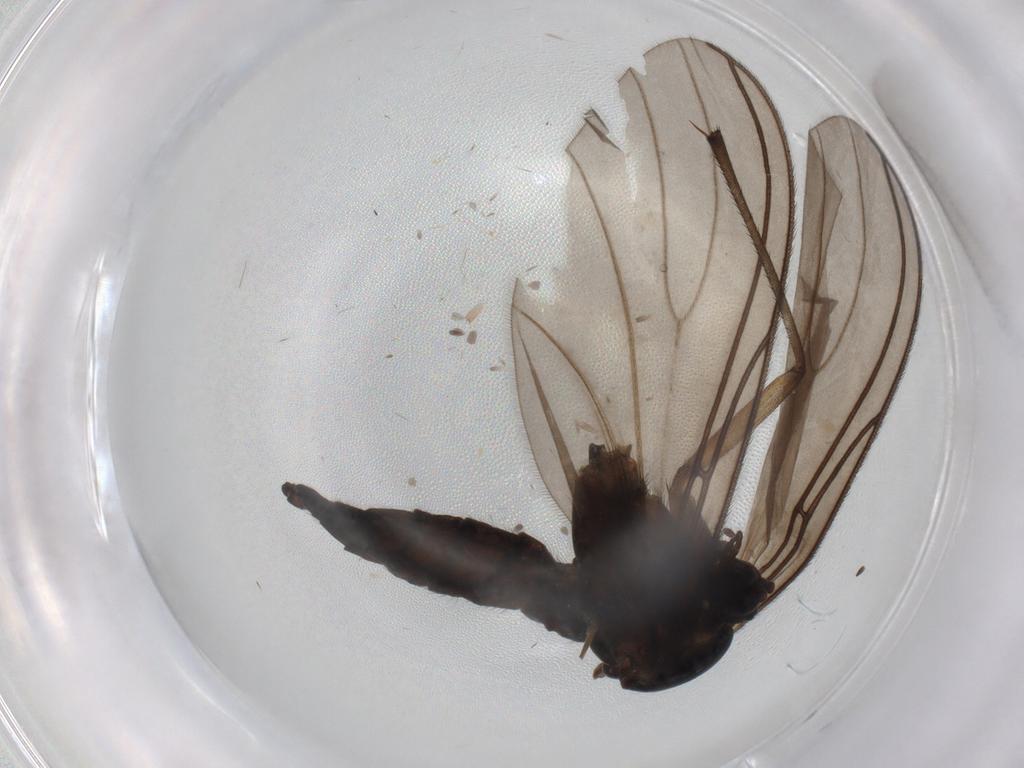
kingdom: Animalia
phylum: Arthropoda
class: Insecta
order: Diptera
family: Sciaridae
